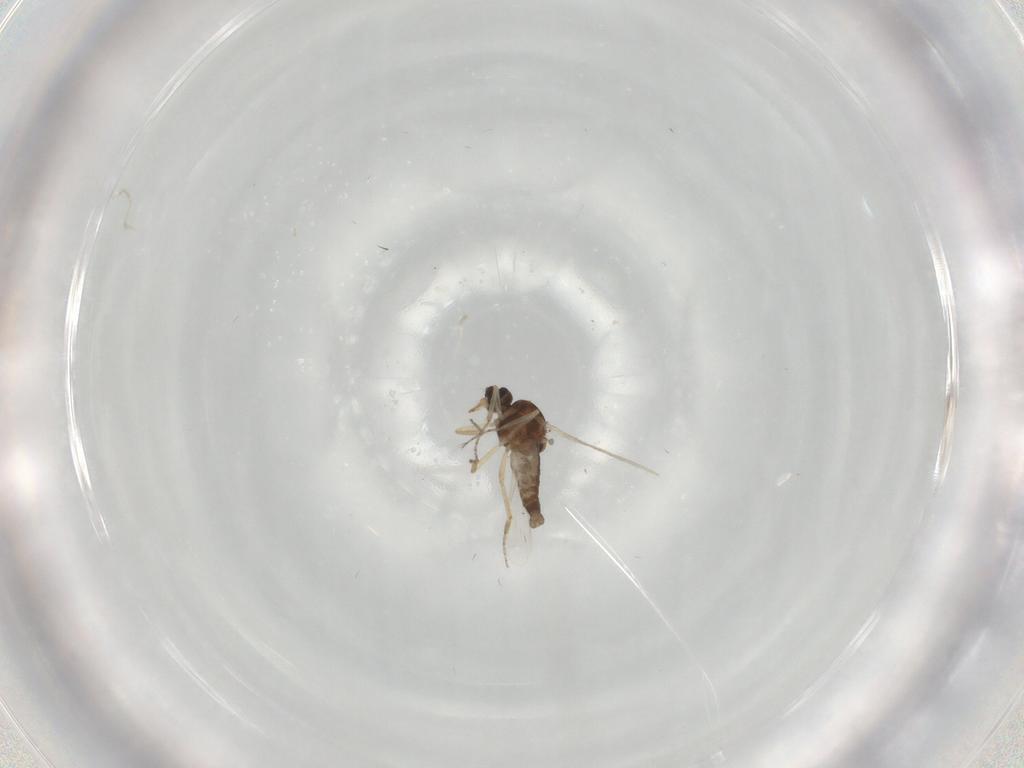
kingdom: Animalia
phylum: Arthropoda
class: Insecta
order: Diptera
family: Ceratopogonidae
